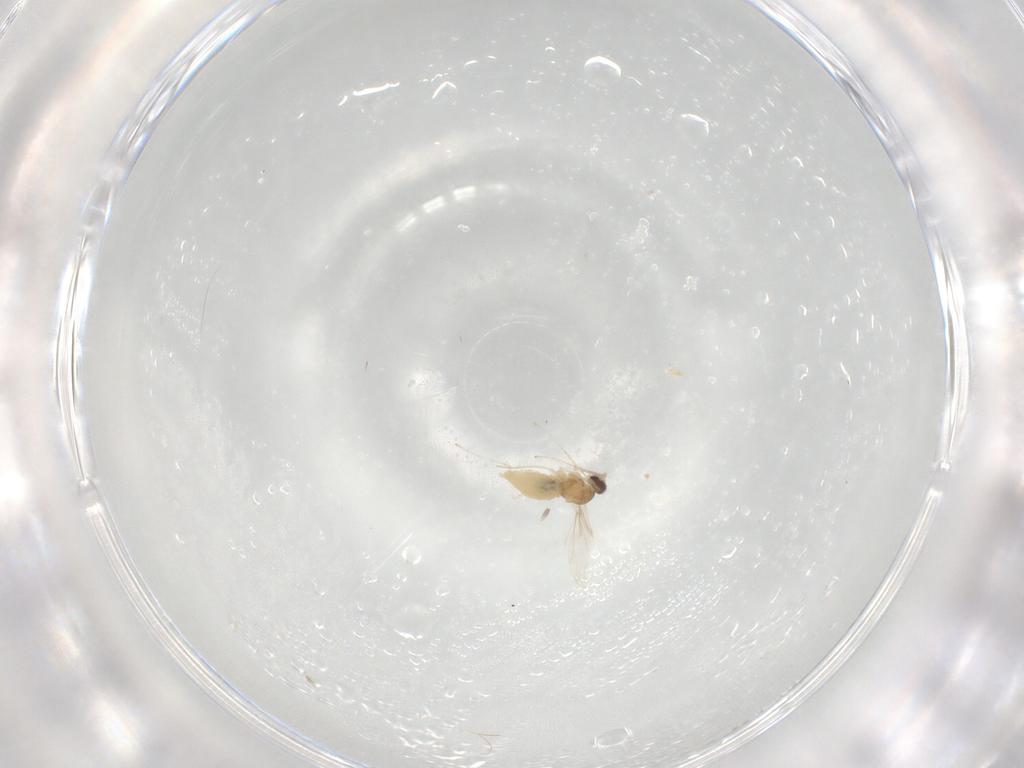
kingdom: Animalia
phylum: Arthropoda
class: Insecta
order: Diptera
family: Cecidomyiidae
